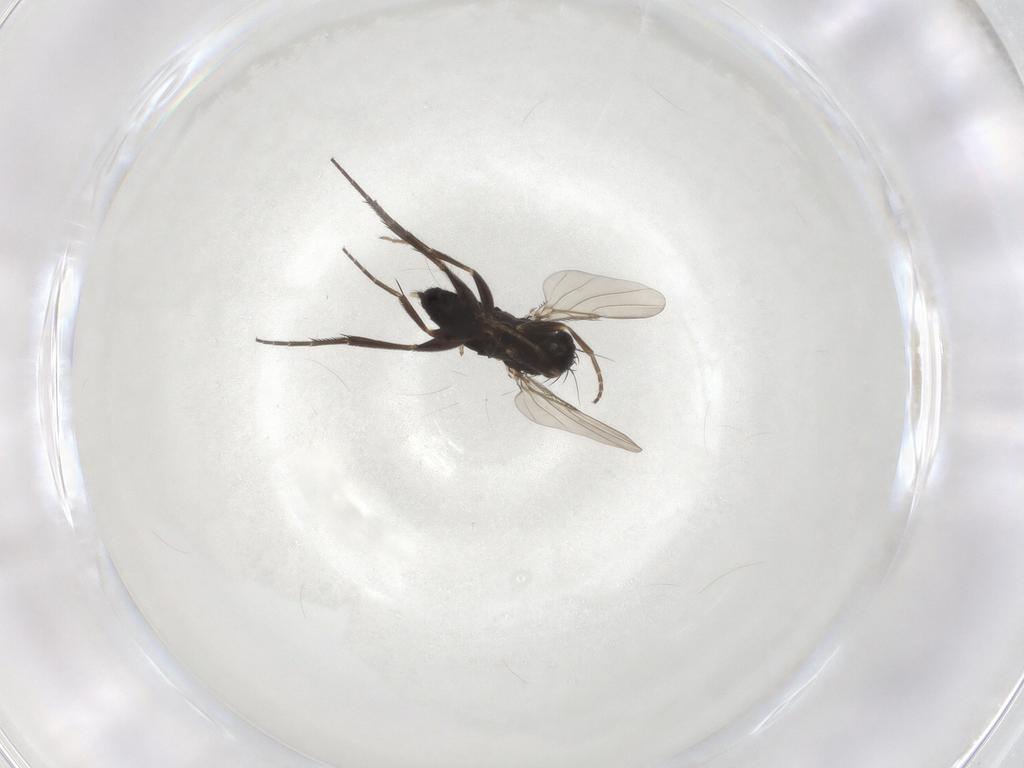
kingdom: Animalia
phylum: Arthropoda
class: Insecta
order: Diptera
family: Phoridae
